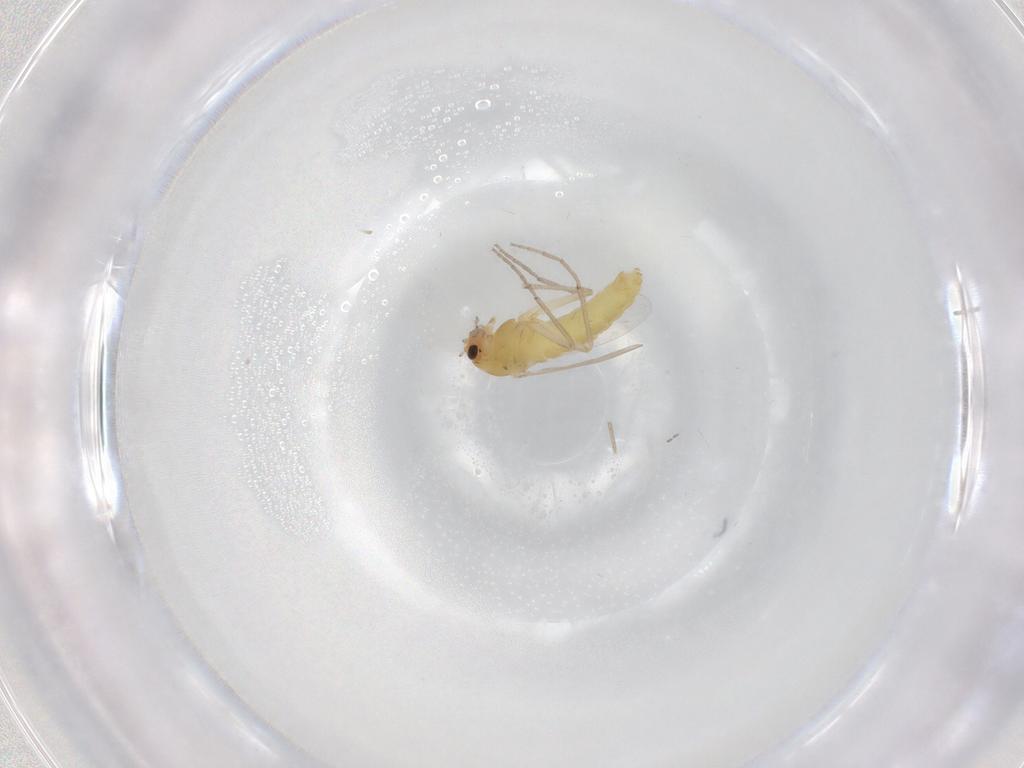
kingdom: Animalia
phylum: Arthropoda
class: Insecta
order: Diptera
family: Chironomidae
